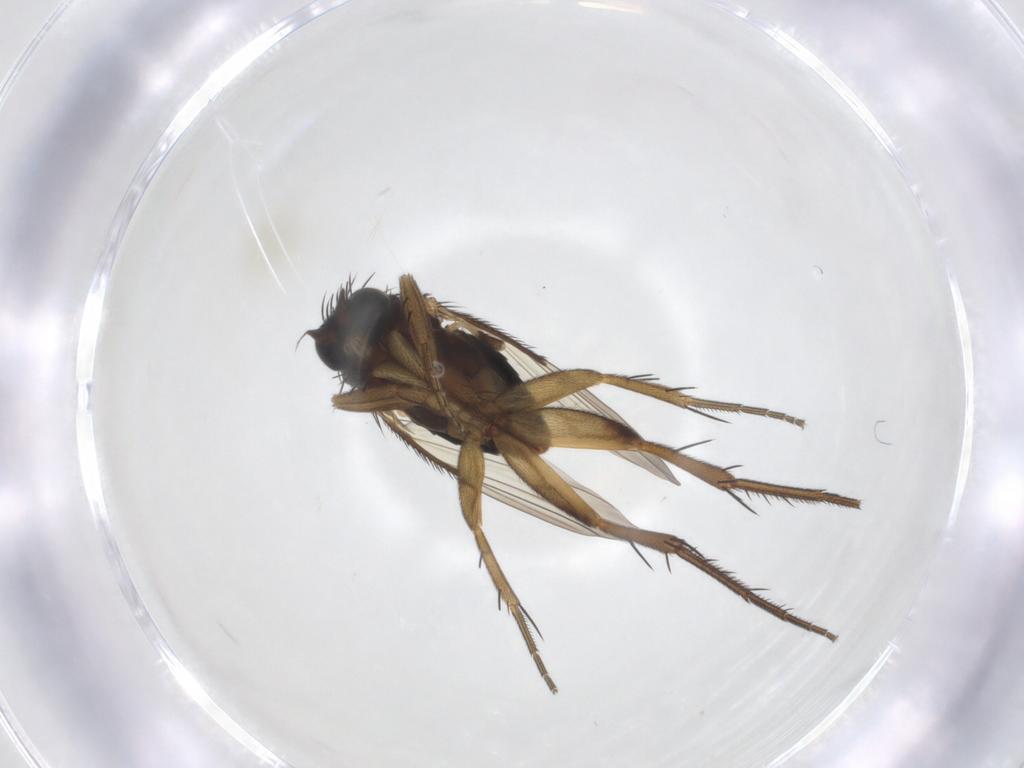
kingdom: Animalia
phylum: Arthropoda
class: Insecta
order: Diptera
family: Phoridae
